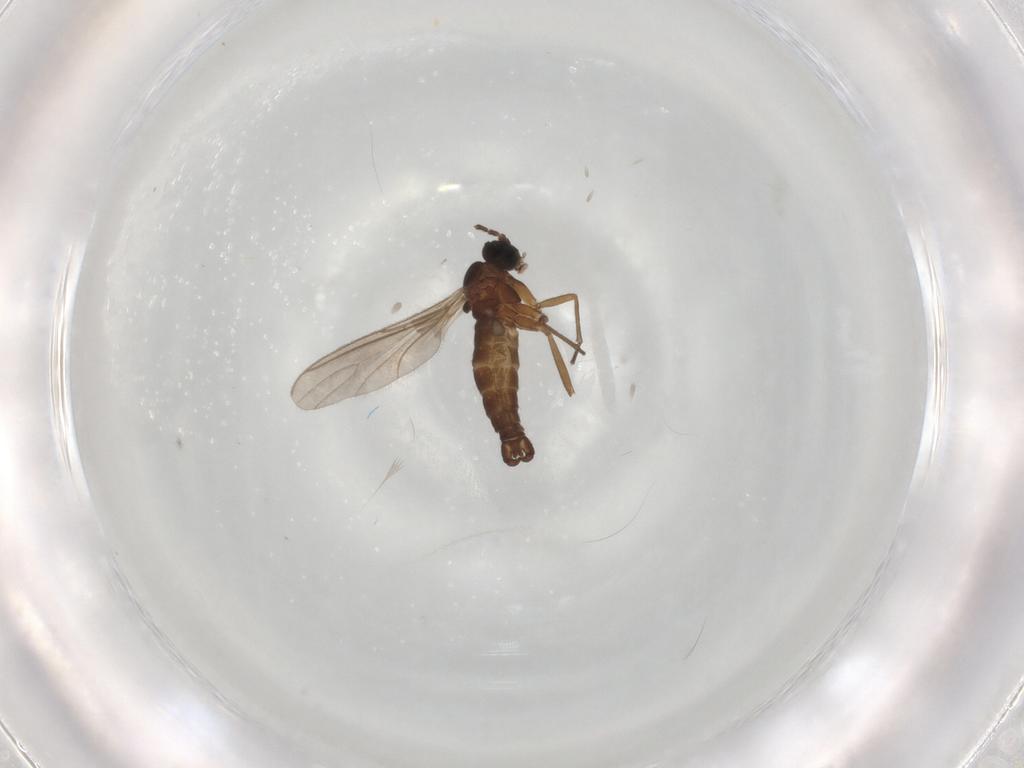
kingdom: Animalia
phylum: Arthropoda
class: Insecta
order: Diptera
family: Sciaridae
